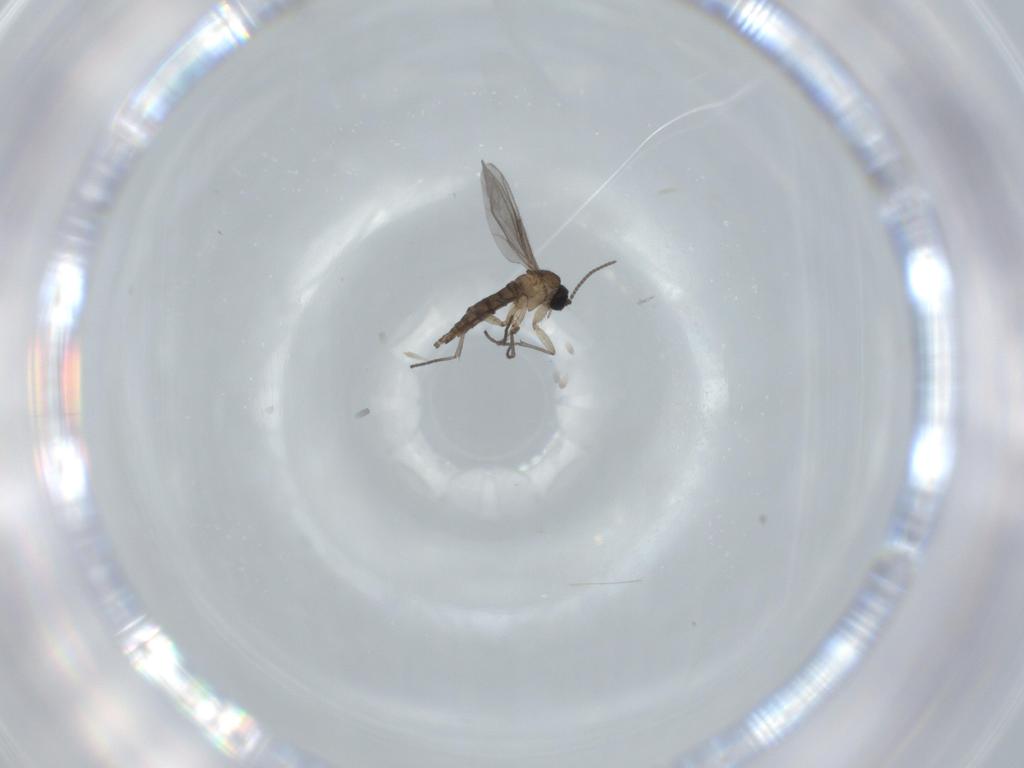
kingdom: Animalia
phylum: Arthropoda
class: Insecta
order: Diptera
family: Sciaridae
